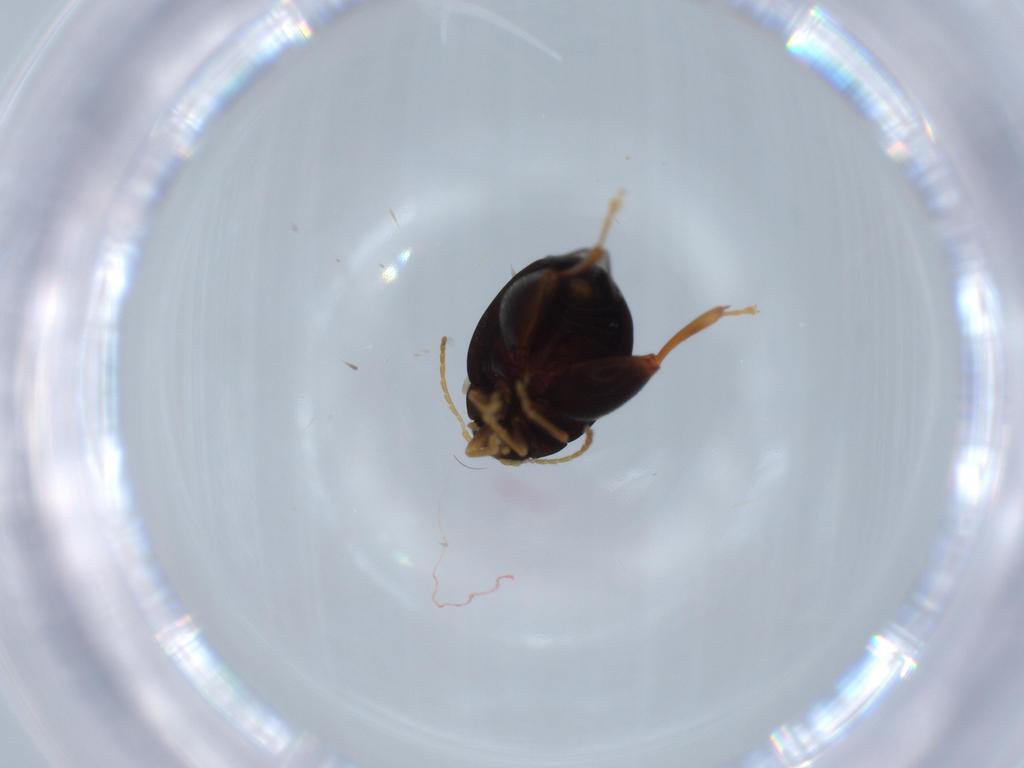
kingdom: Animalia
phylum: Arthropoda
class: Insecta
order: Coleoptera
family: Chrysomelidae
